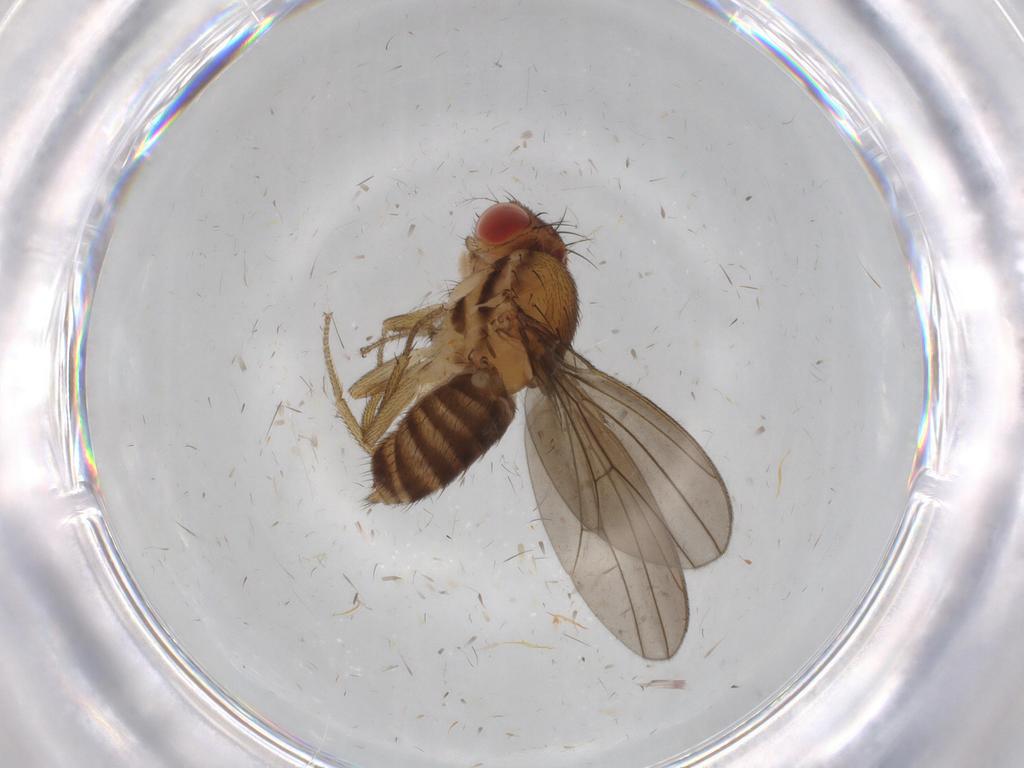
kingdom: Animalia
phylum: Arthropoda
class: Insecta
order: Diptera
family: Drosophilidae
